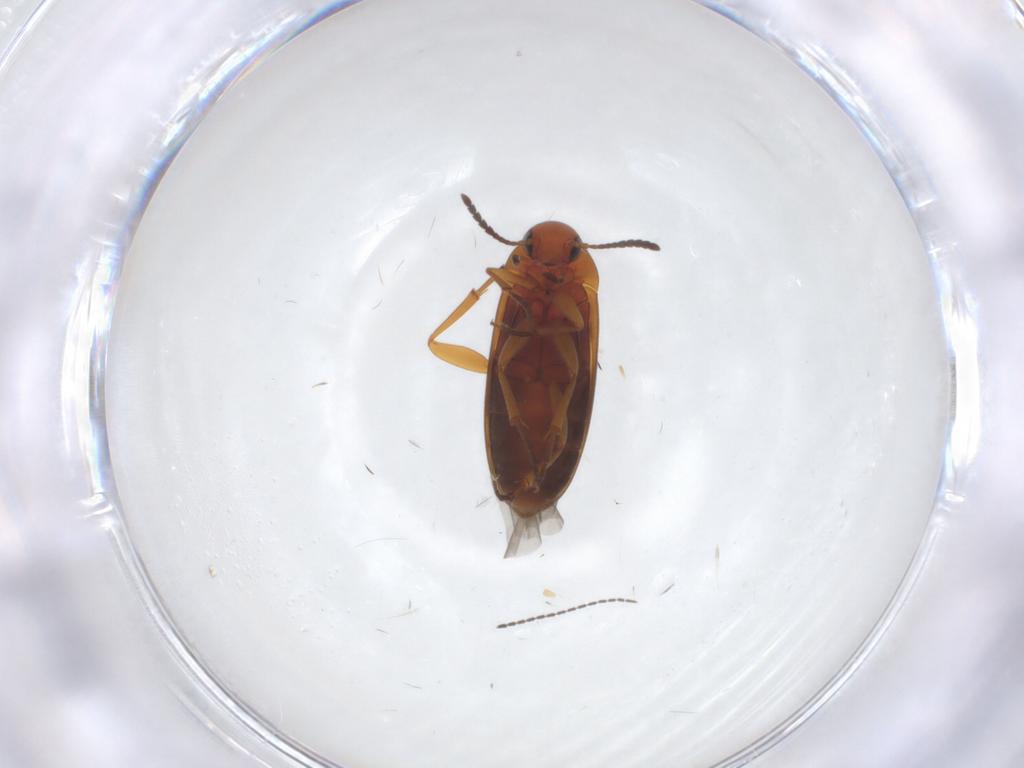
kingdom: Animalia
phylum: Arthropoda
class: Insecta
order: Coleoptera
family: Scraptiidae
